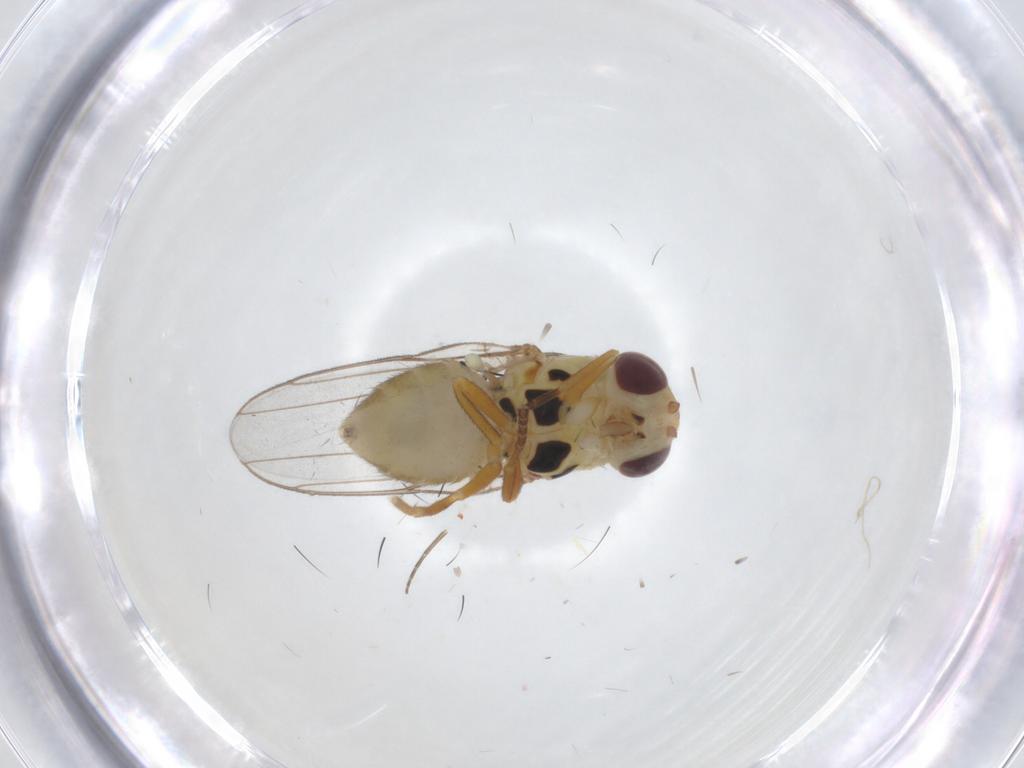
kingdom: Animalia
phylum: Arthropoda
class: Insecta
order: Diptera
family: Chloropidae
